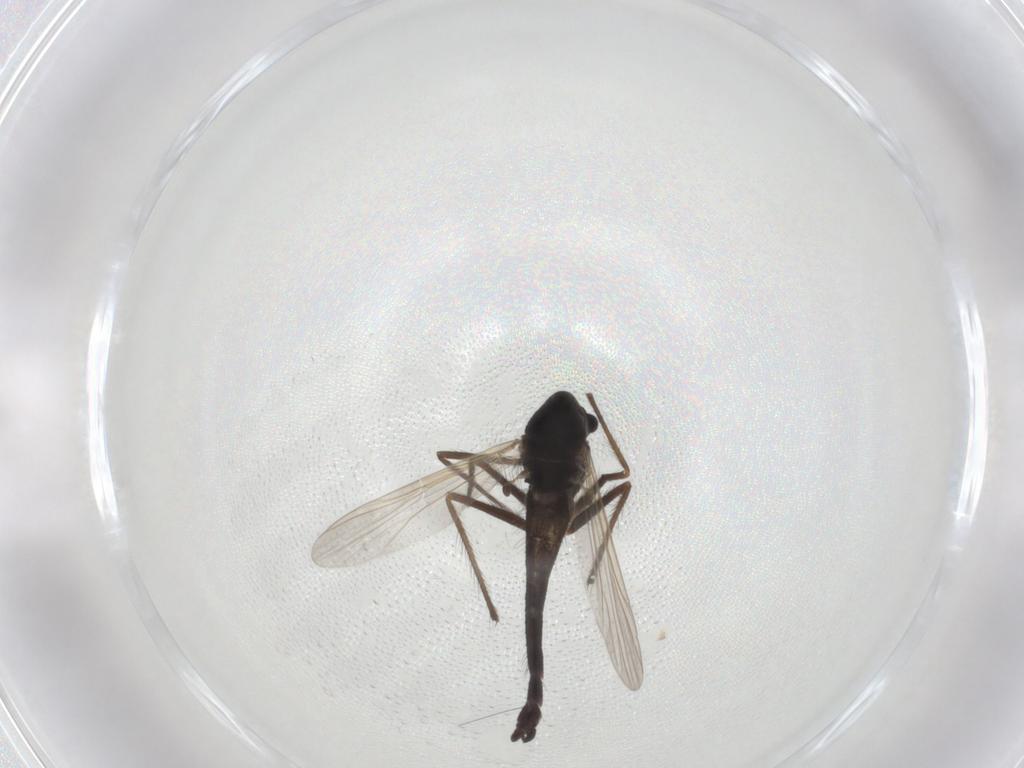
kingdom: Animalia
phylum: Arthropoda
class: Insecta
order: Diptera
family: Chironomidae
